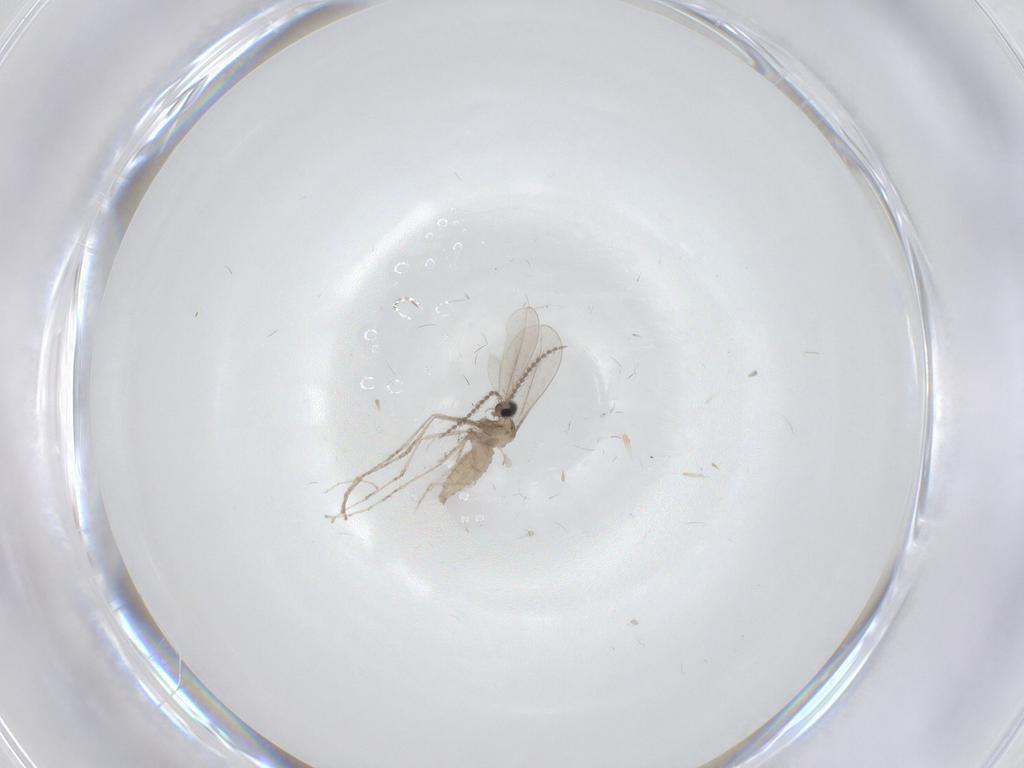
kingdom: Animalia
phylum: Arthropoda
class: Insecta
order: Diptera
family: Cecidomyiidae
